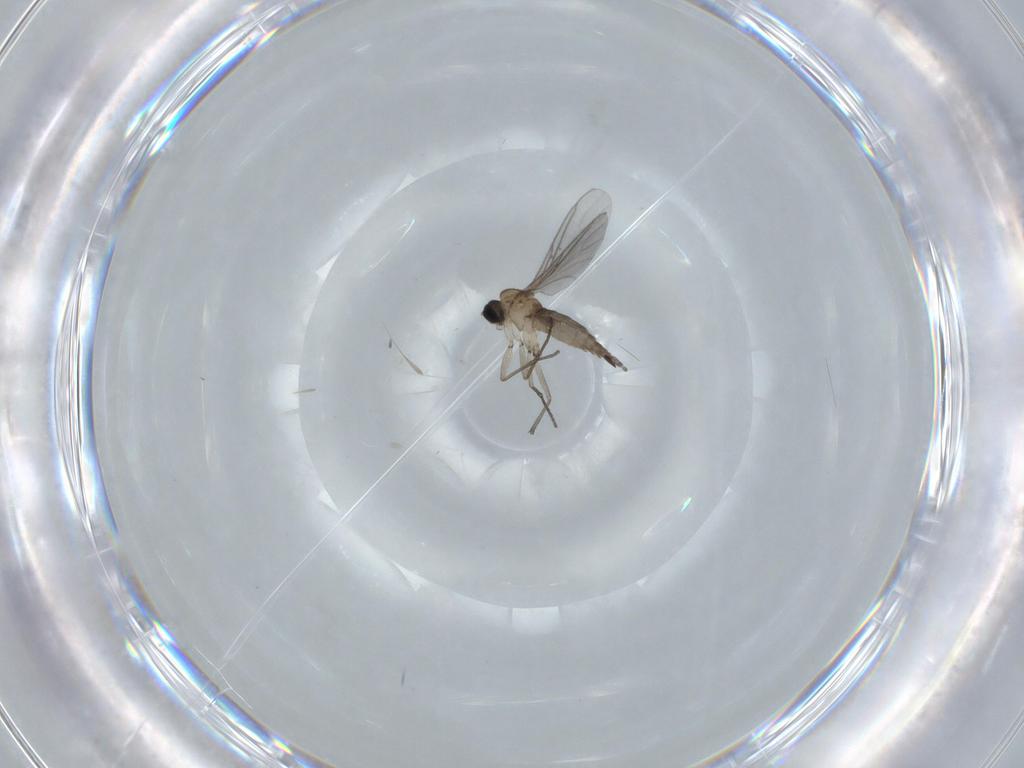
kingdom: Animalia
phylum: Arthropoda
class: Insecta
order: Diptera
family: Sciaridae
